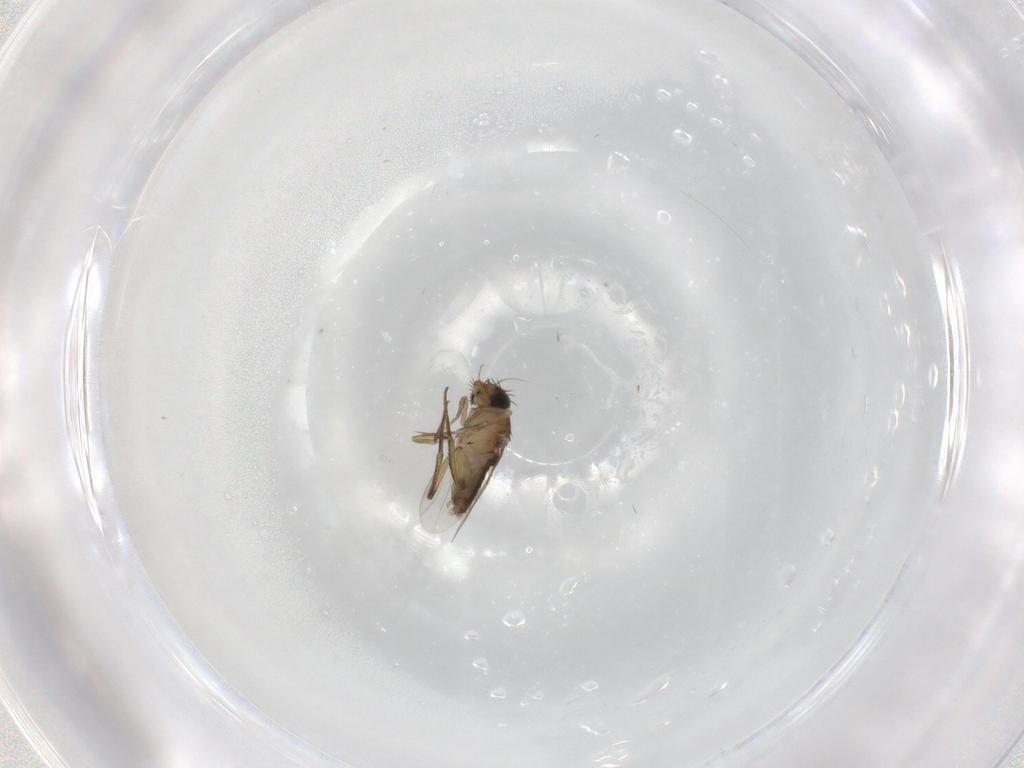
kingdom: Animalia
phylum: Arthropoda
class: Insecta
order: Diptera
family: Phoridae
